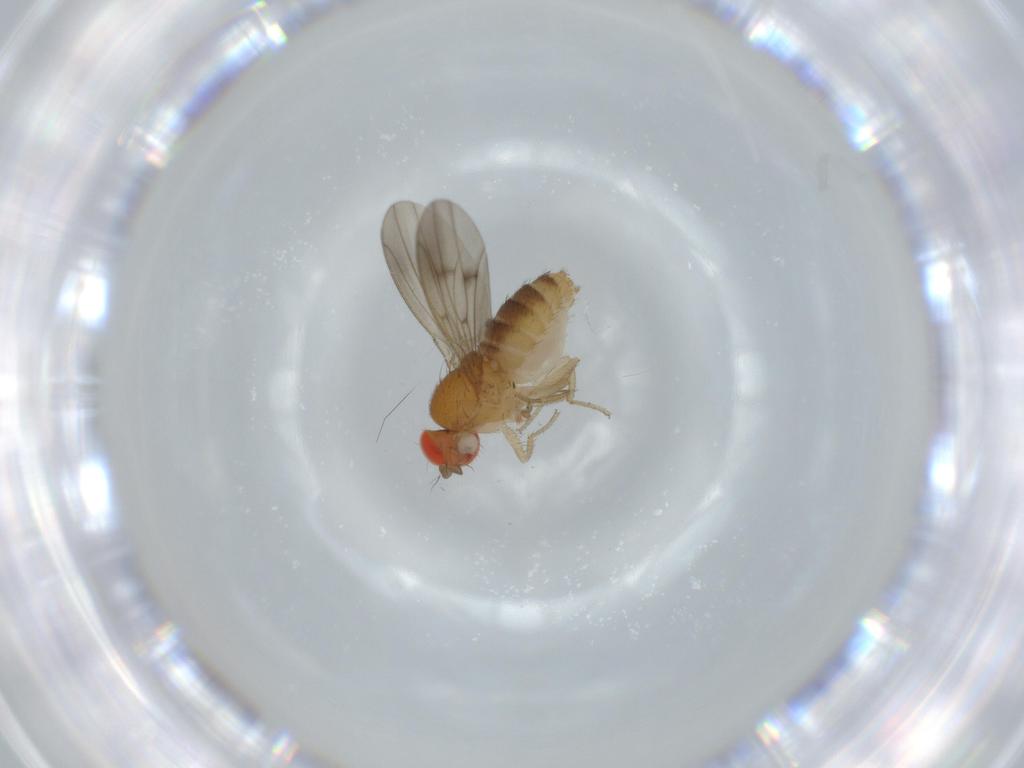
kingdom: Animalia
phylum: Arthropoda
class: Insecta
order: Diptera
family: Drosophilidae
